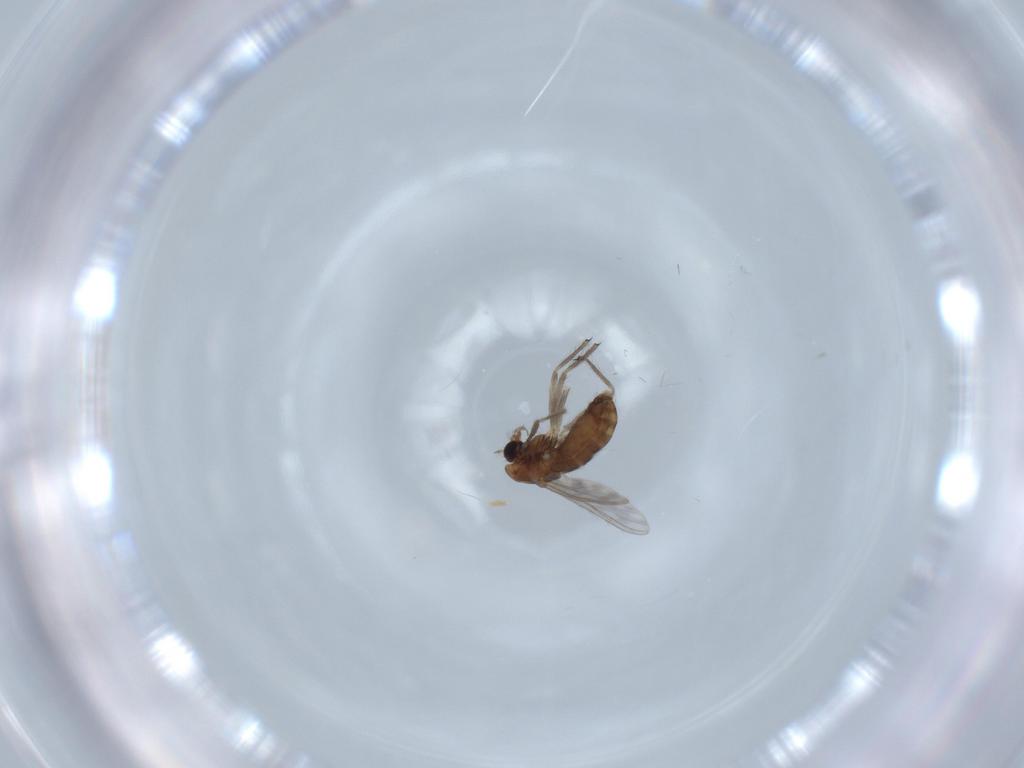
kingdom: Animalia
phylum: Arthropoda
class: Insecta
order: Diptera
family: Chironomidae
